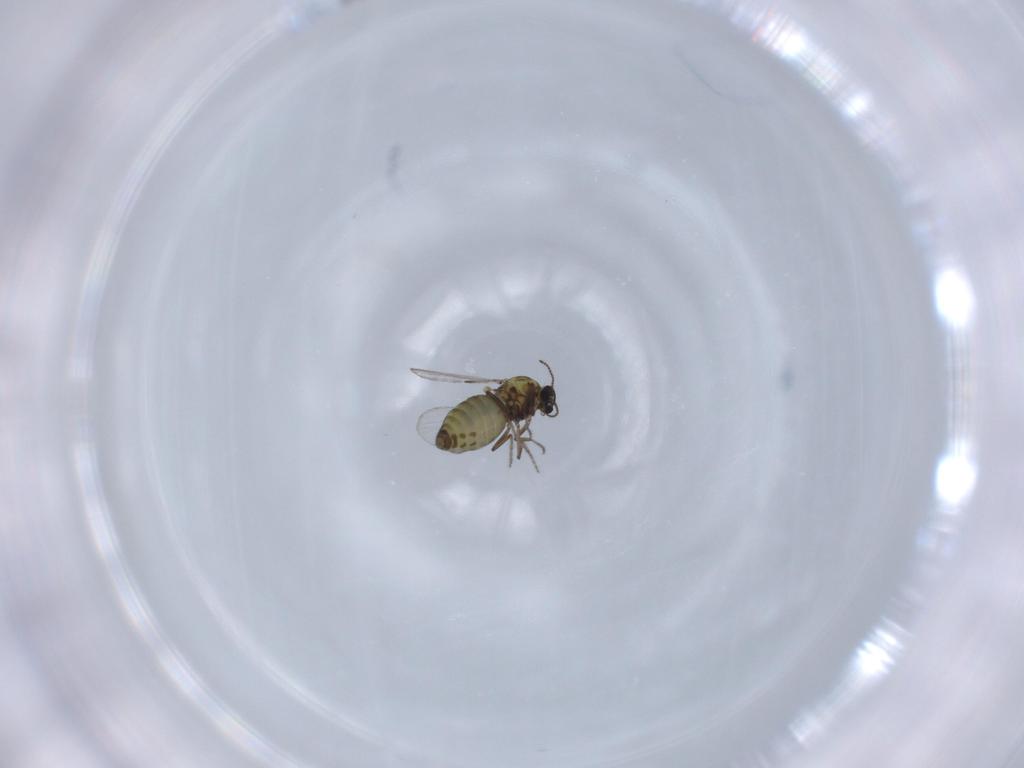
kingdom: Animalia
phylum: Arthropoda
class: Insecta
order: Diptera
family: Ceratopogonidae
